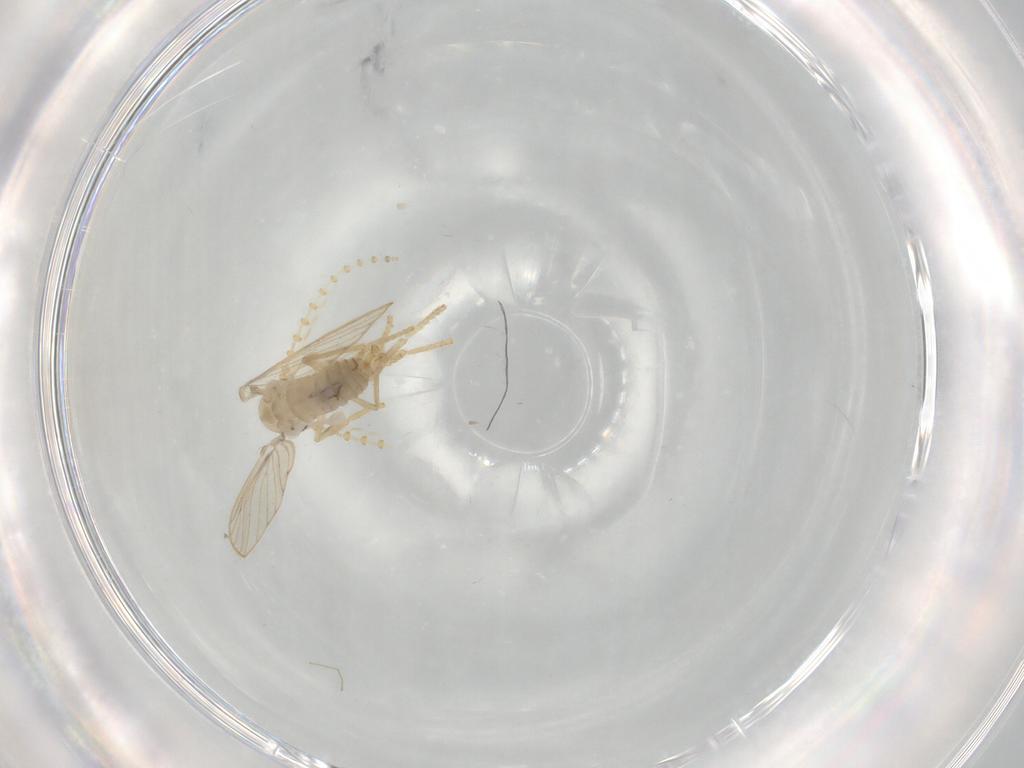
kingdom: Animalia
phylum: Arthropoda
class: Insecta
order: Diptera
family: Psychodidae
